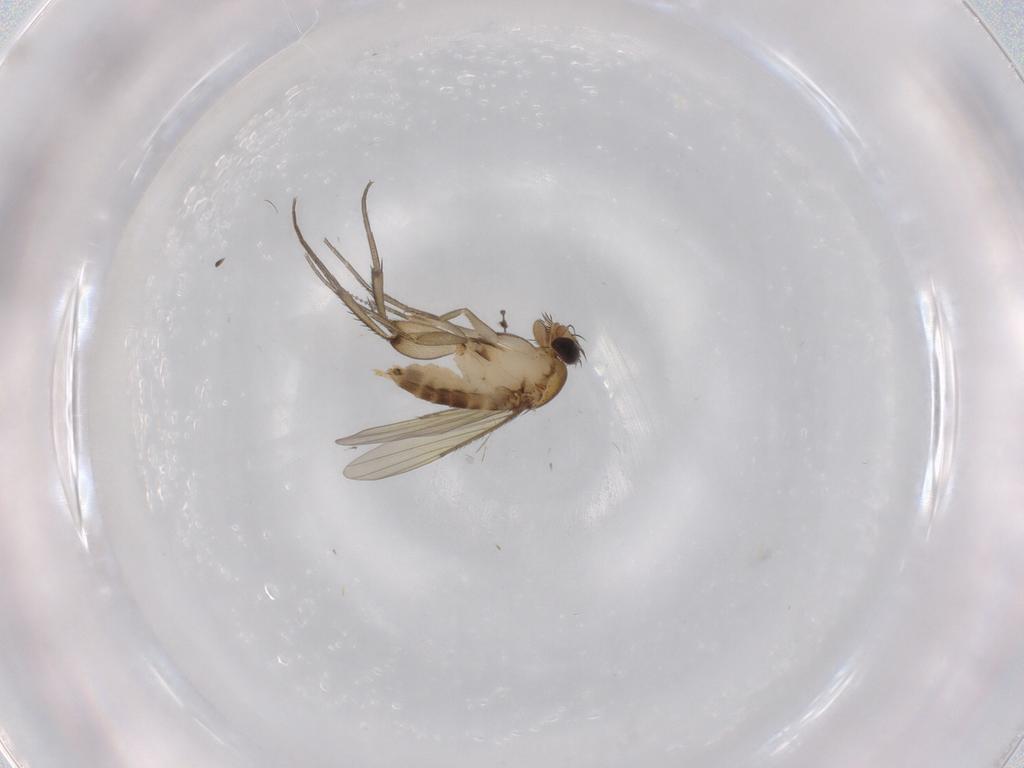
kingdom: Animalia
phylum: Arthropoda
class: Insecta
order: Diptera
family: Phoridae
